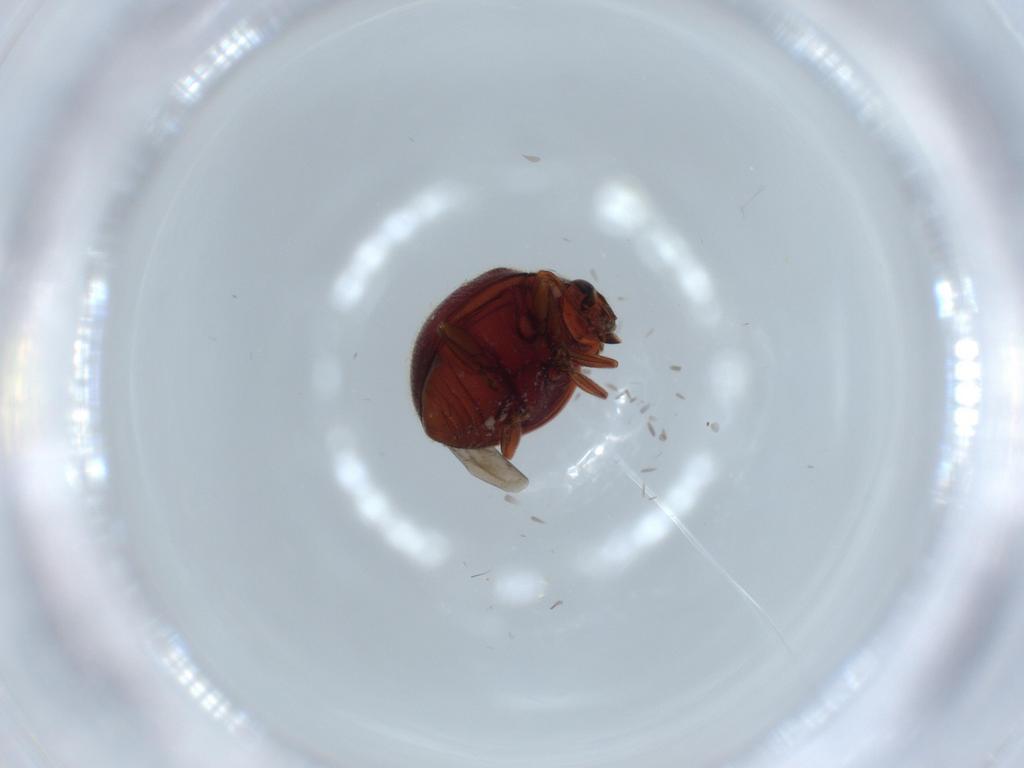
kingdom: Animalia
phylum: Arthropoda
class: Insecta
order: Coleoptera
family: Coccinellidae
